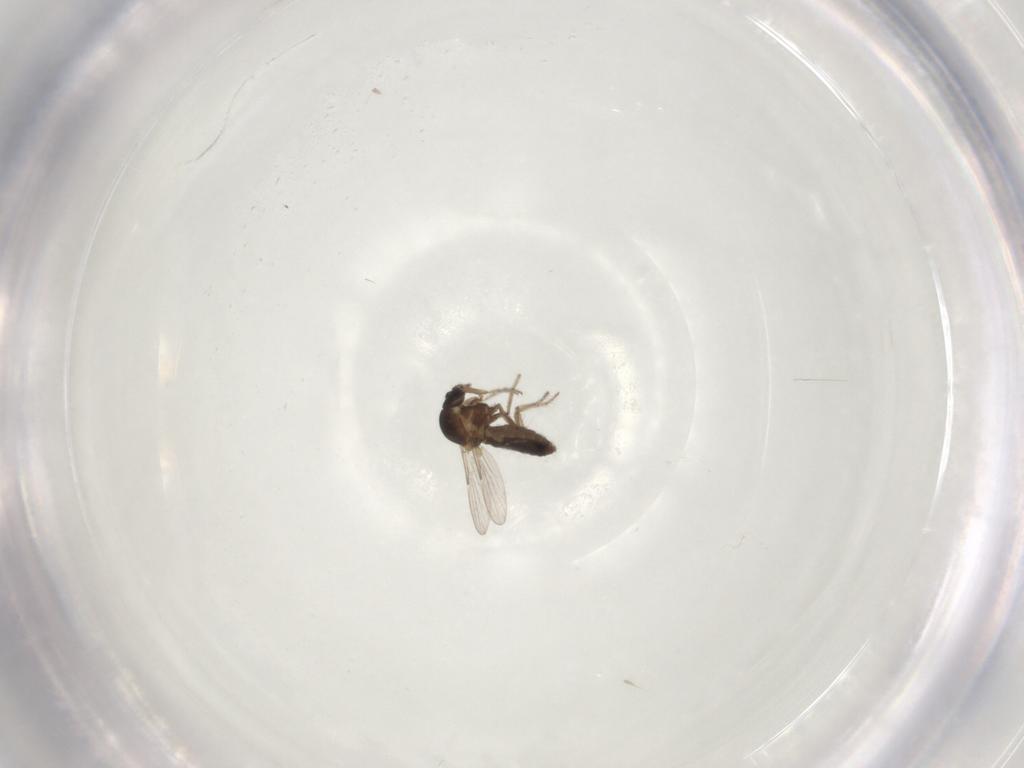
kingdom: Animalia
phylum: Arthropoda
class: Insecta
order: Diptera
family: Ceratopogonidae
